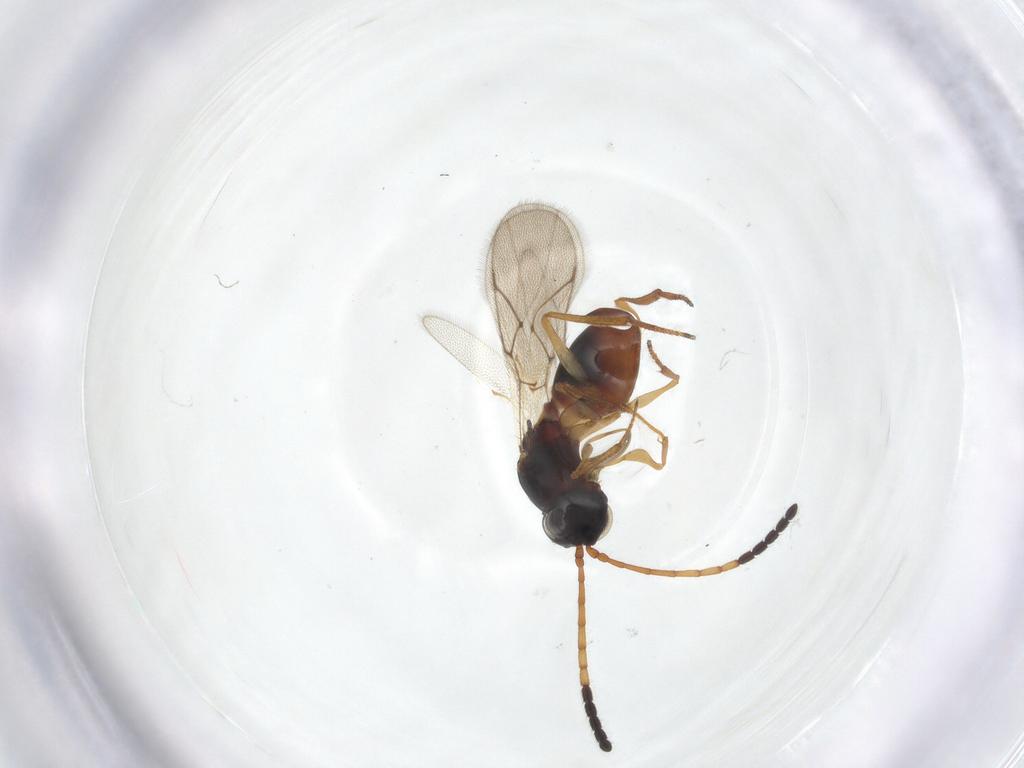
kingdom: Animalia
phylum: Arthropoda
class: Insecta
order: Hymenoptera
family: Figitidae
